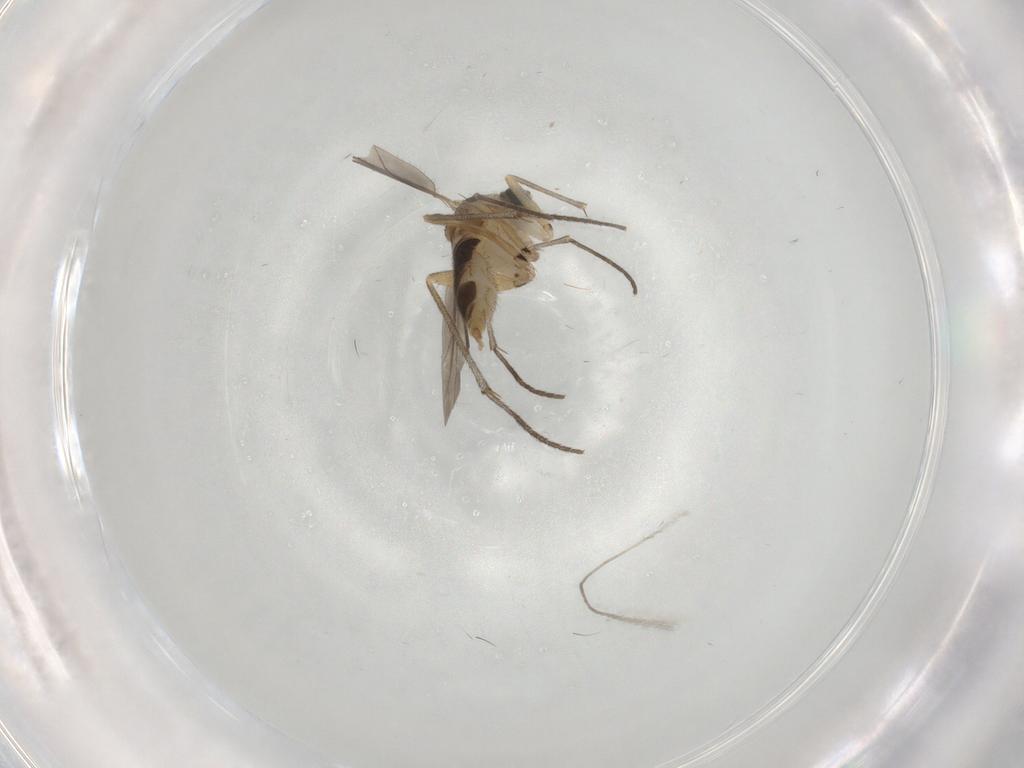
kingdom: Animalia
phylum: Arthropoda
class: Insecta
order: Diptera
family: Sciaridae
